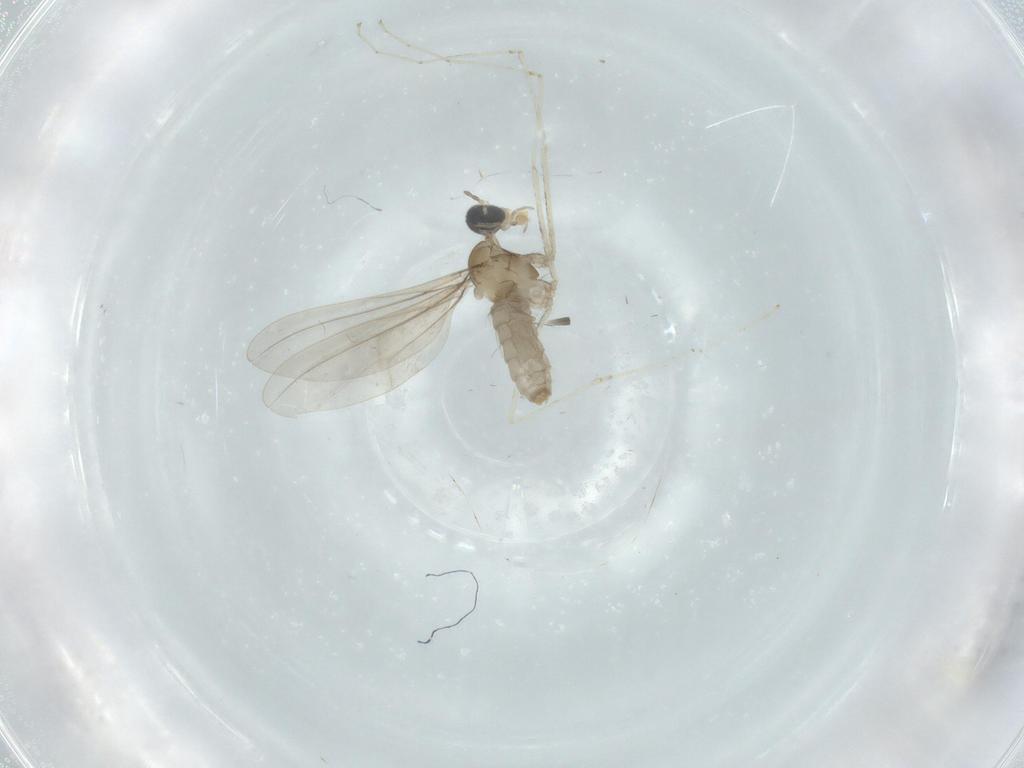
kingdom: Animalia
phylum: Arthropoda
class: Insecta
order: Diptera
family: Cecidomyiidae
